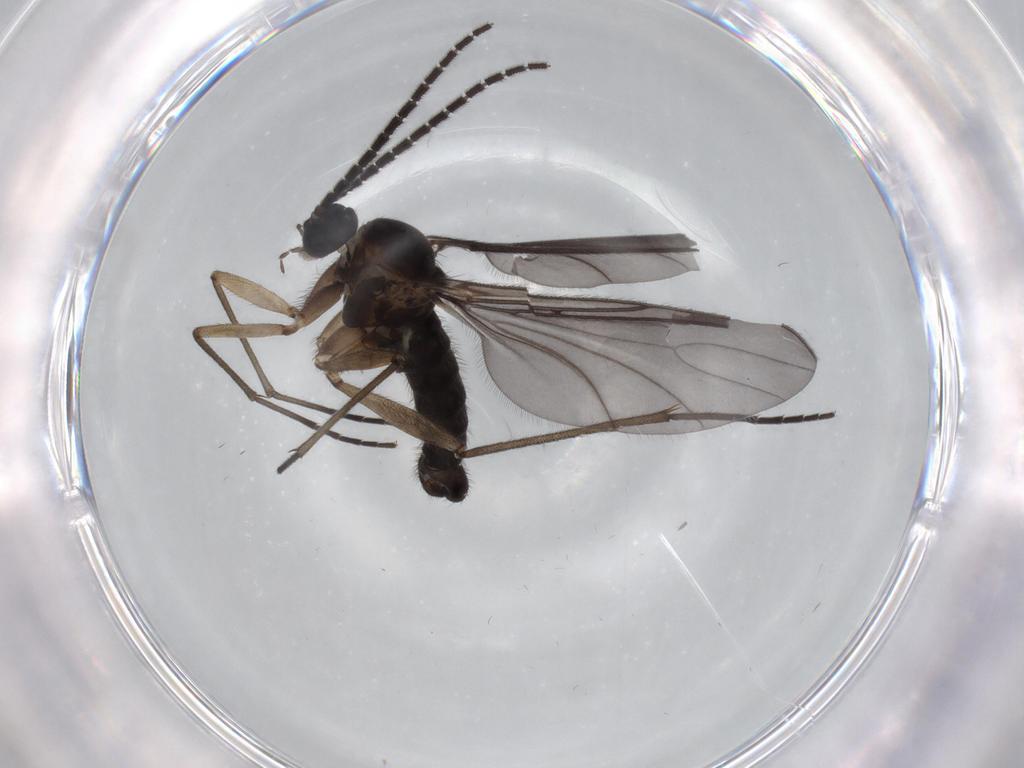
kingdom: Animalia
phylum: Arthropoda
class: Insecta
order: Diptera
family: Sciaridae
